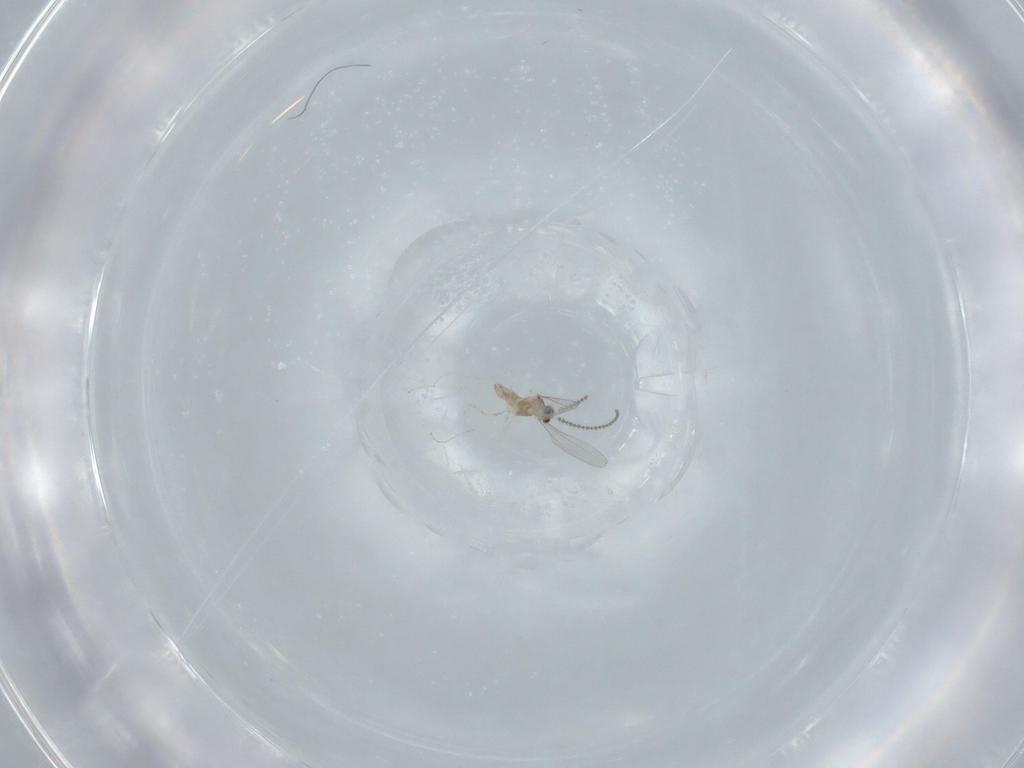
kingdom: Animalia
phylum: Arthropoda
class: Insecta
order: Diptera
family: Cecidomyiidae
